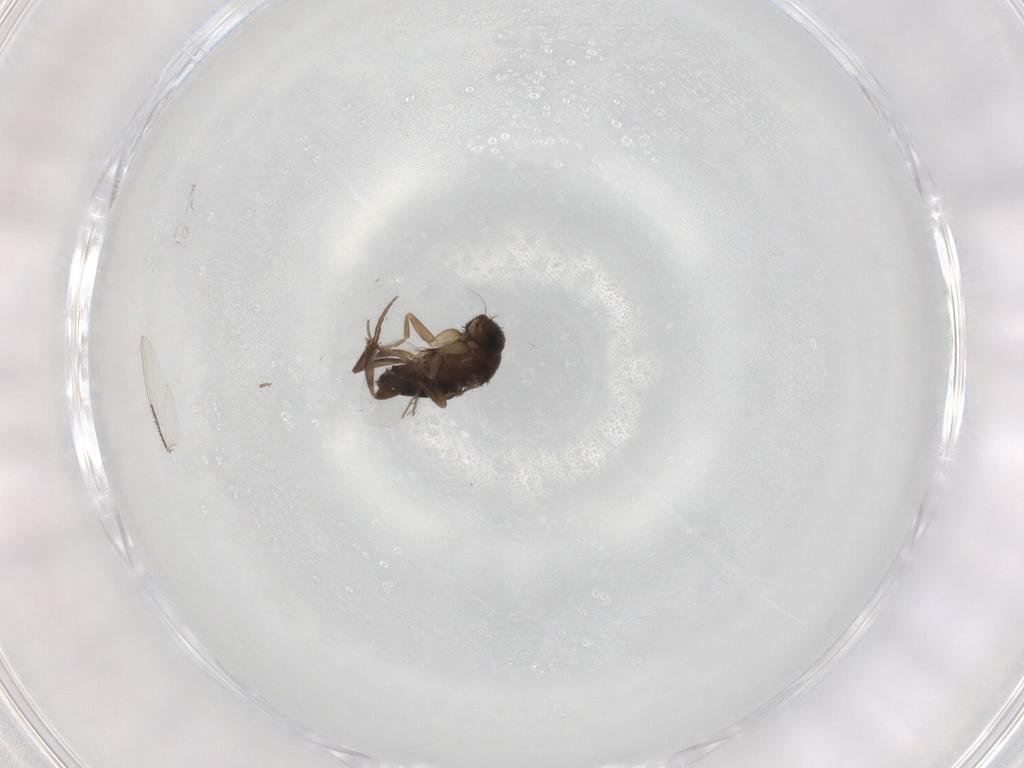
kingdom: Animalia
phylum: Arthropoda
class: Insecta
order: Diptera
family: Phoridae
